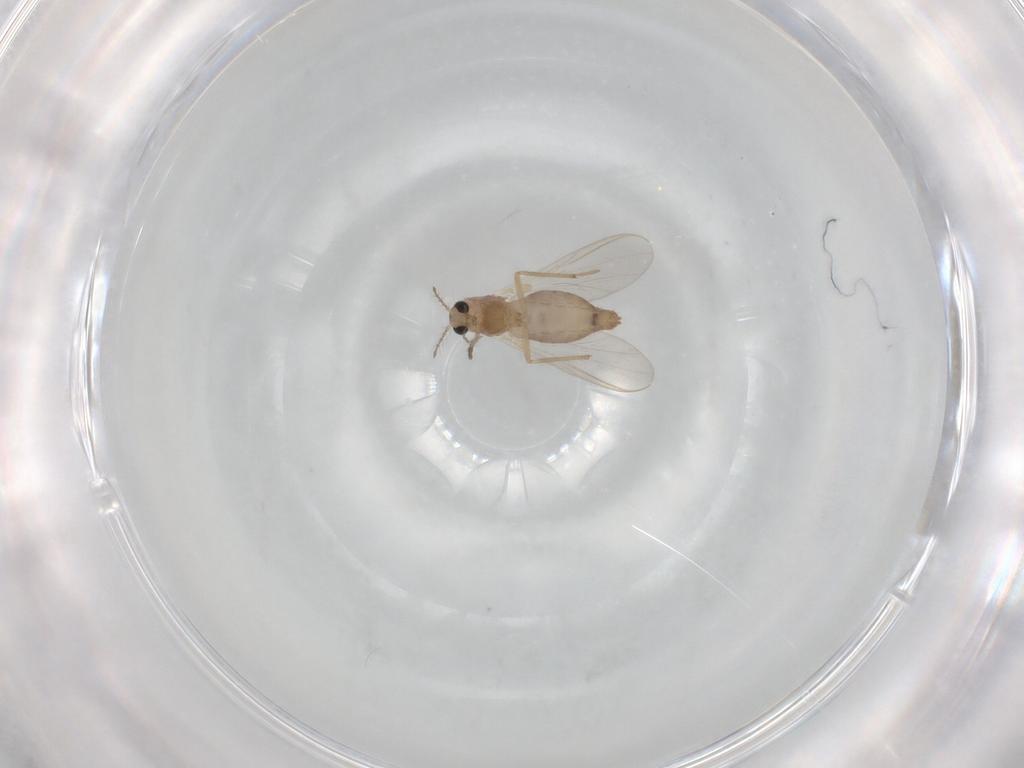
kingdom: Animalia
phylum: Arthropoda
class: Insecta
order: Diptera
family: Chironomidae
